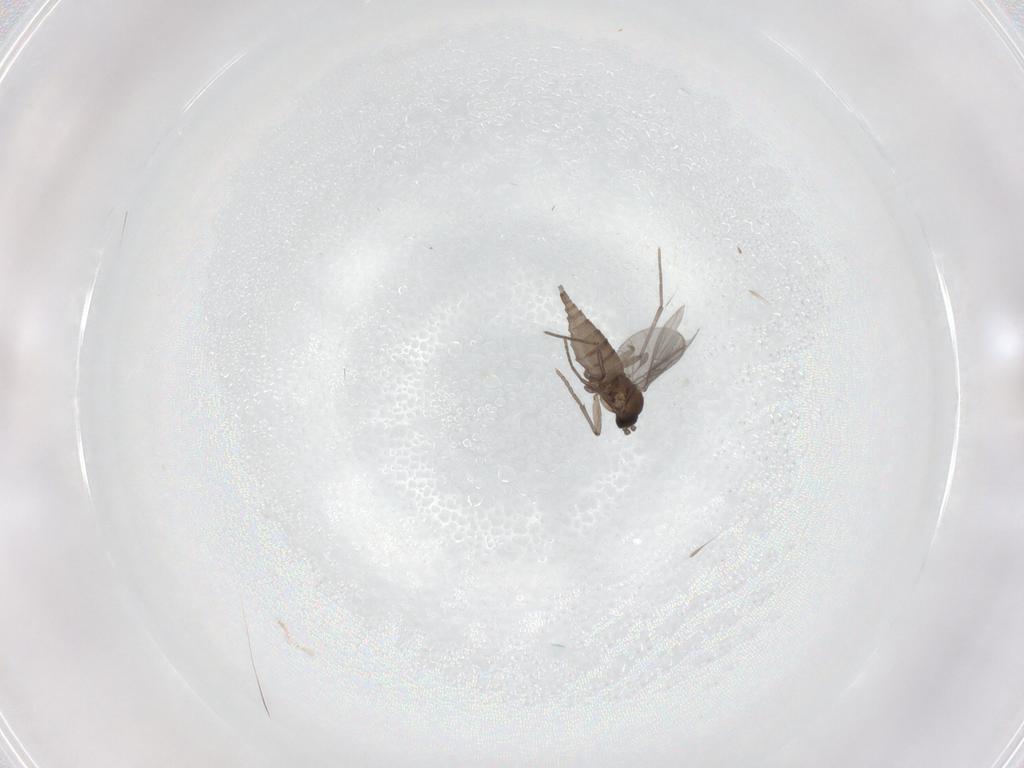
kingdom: Animalia
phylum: Arthropoda
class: Insecta
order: Diptera
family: Sciaridae
